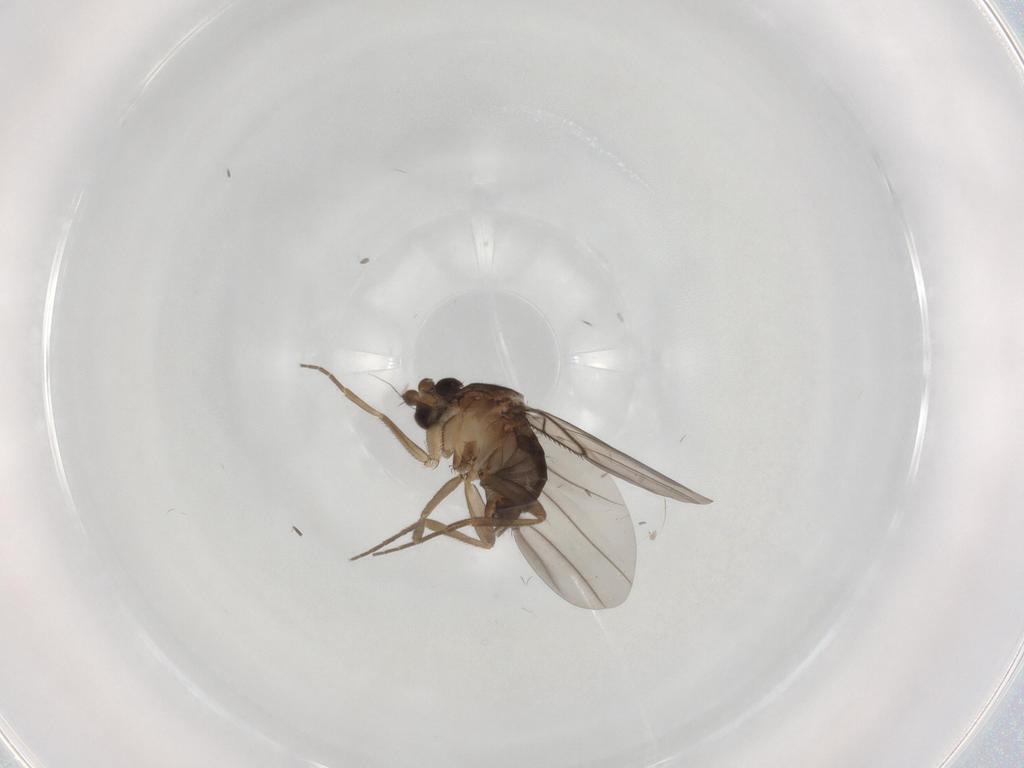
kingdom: Animalia
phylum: Arthropoda
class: Insecta
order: Diptera
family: Phoridae
